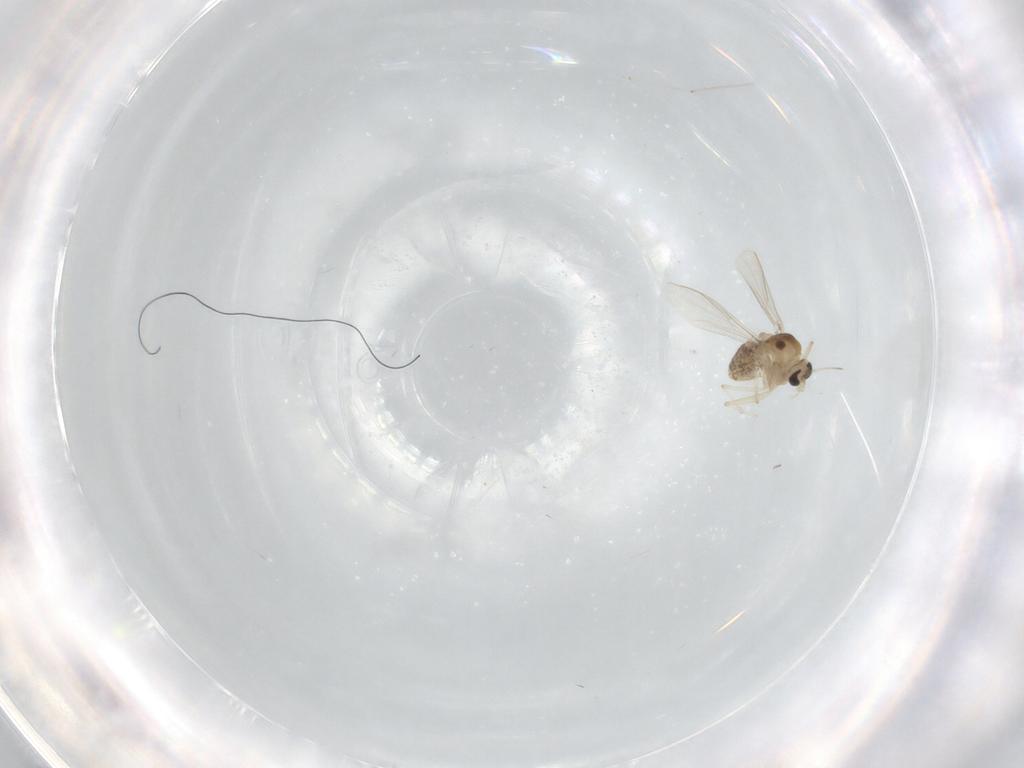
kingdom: Animalia
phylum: Arthropoda
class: Insecta
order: Diptera
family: Chironomidae
